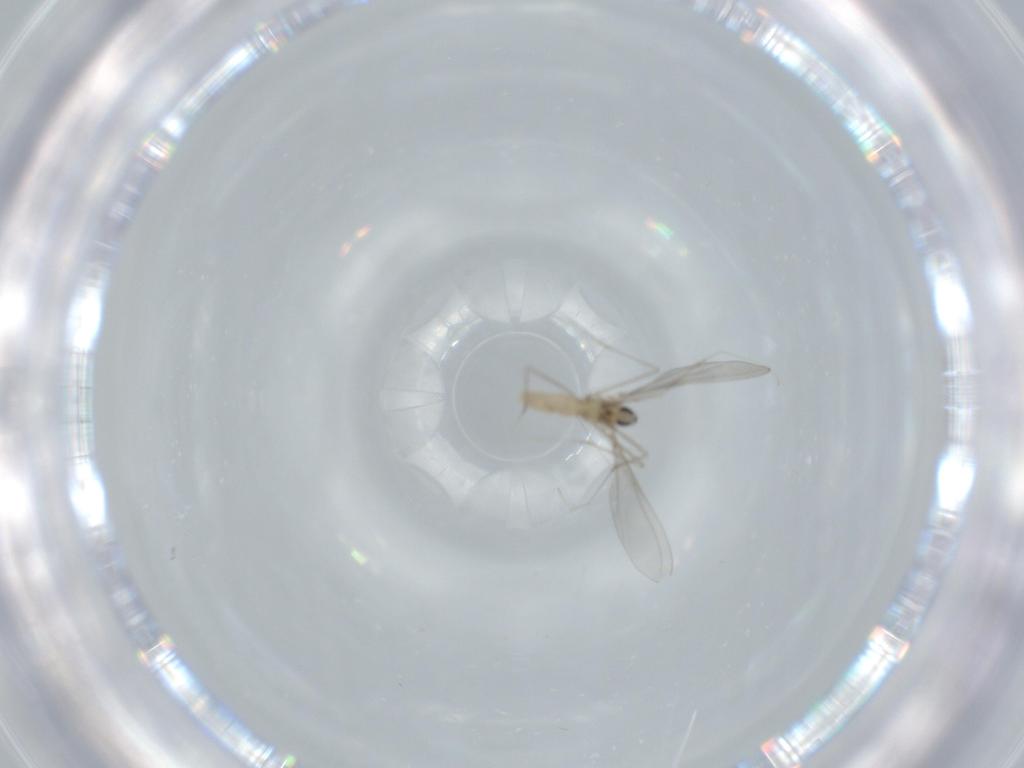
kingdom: Animalia
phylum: Arthropoda
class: Insecta
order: Diptera
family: Cecidomyiidae
